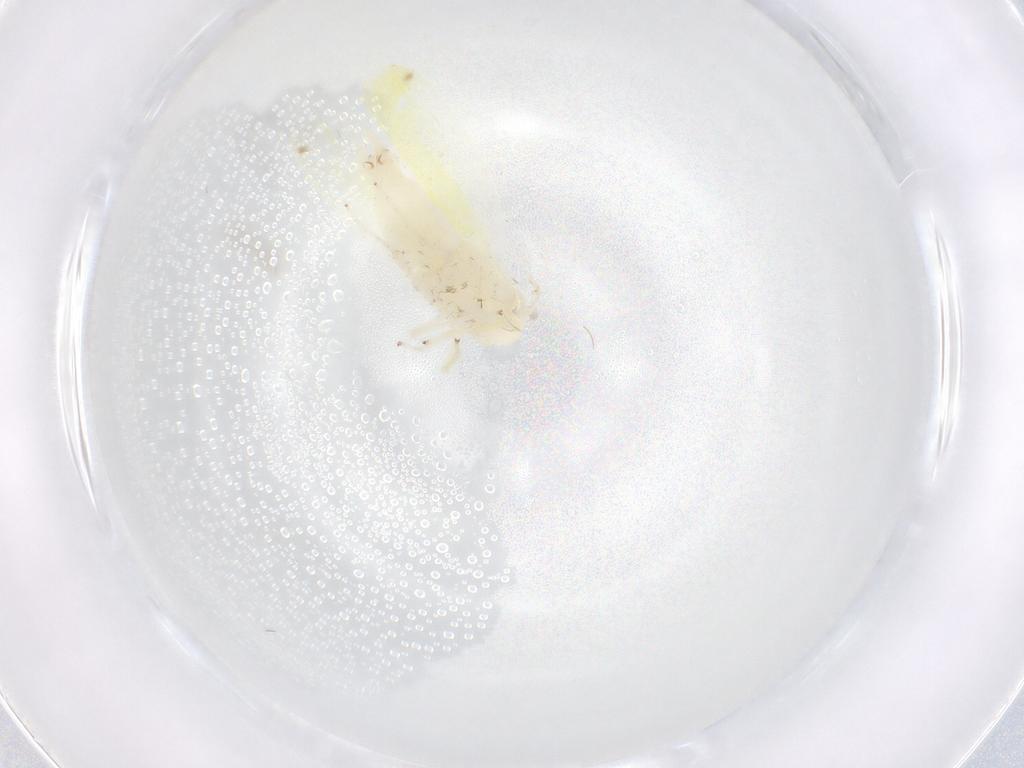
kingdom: Animalia
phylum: Arthropoda
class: Insecta
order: Hemiptera
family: Cicadellidae
